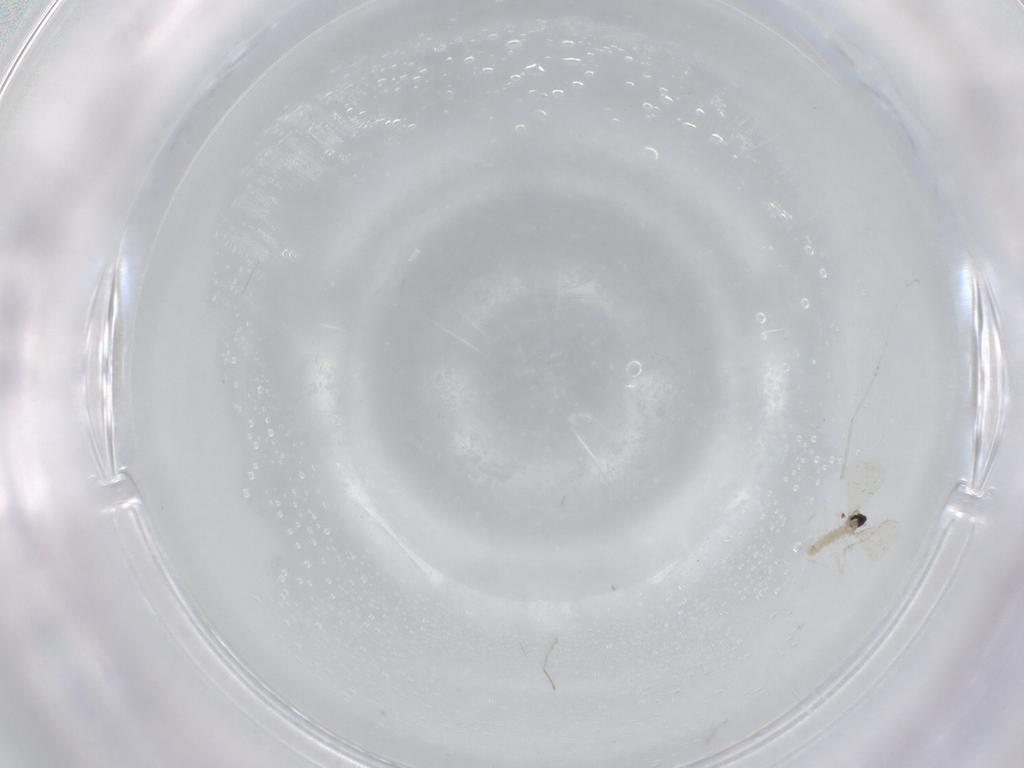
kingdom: Animalia
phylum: Arthropoda
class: Insecta
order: Diptera
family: Cecidomyiidae
